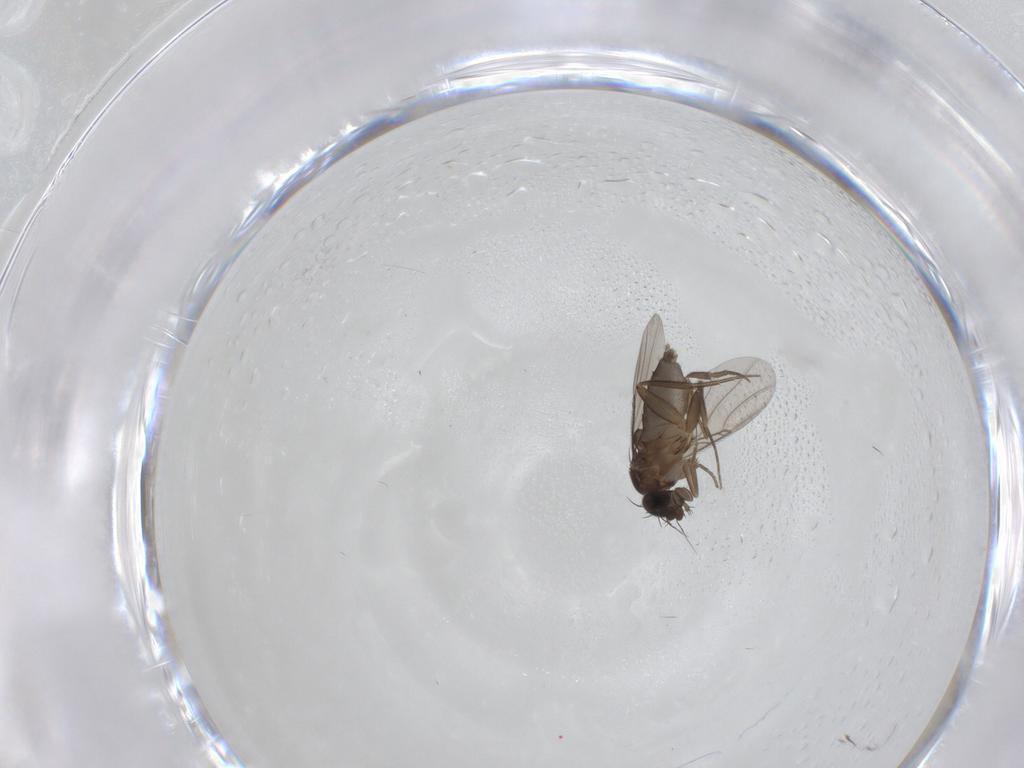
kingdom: Animalia
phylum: Arthropoda
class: Insecta
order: Diptera
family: Phoridae
